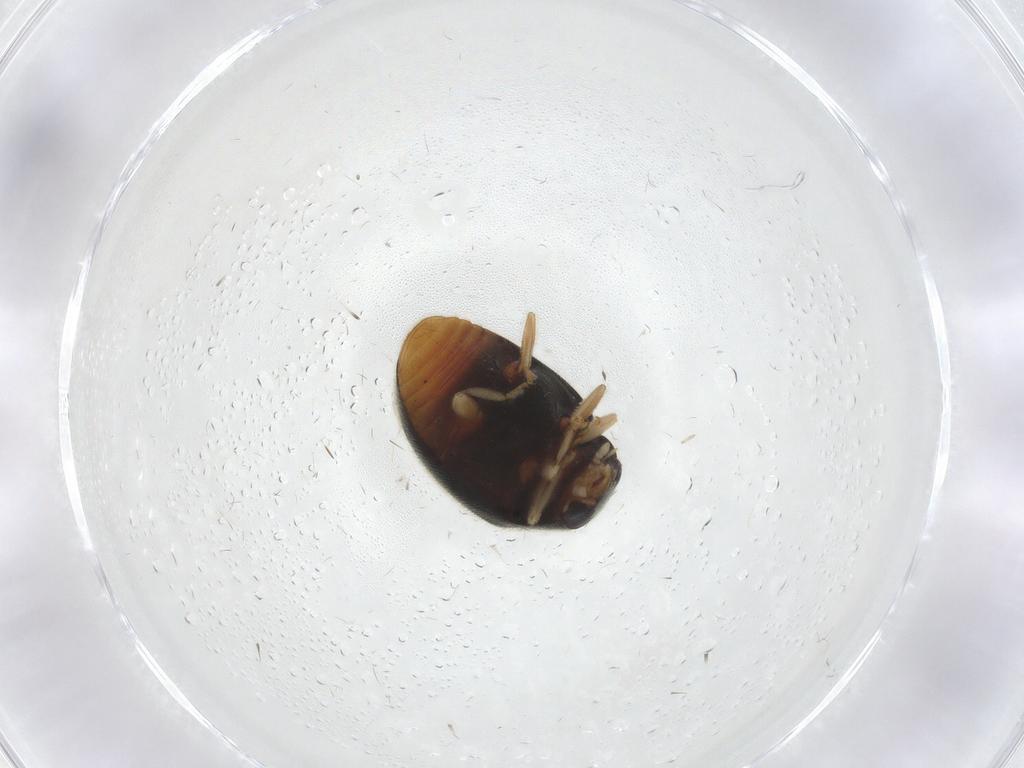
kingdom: Animalia
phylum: Arthropoda
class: Insecta
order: Coleoptera
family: Coccinellidae
